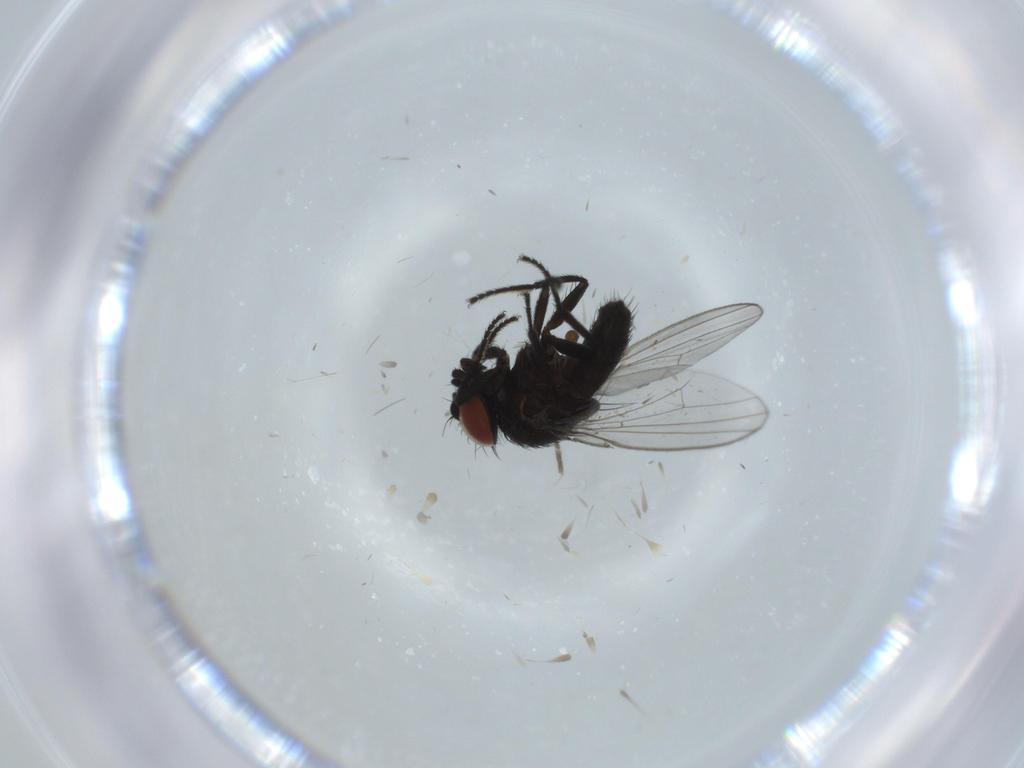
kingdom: Animalia
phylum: Arthropoda
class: Insecta
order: Diptera
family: Milichiidae
